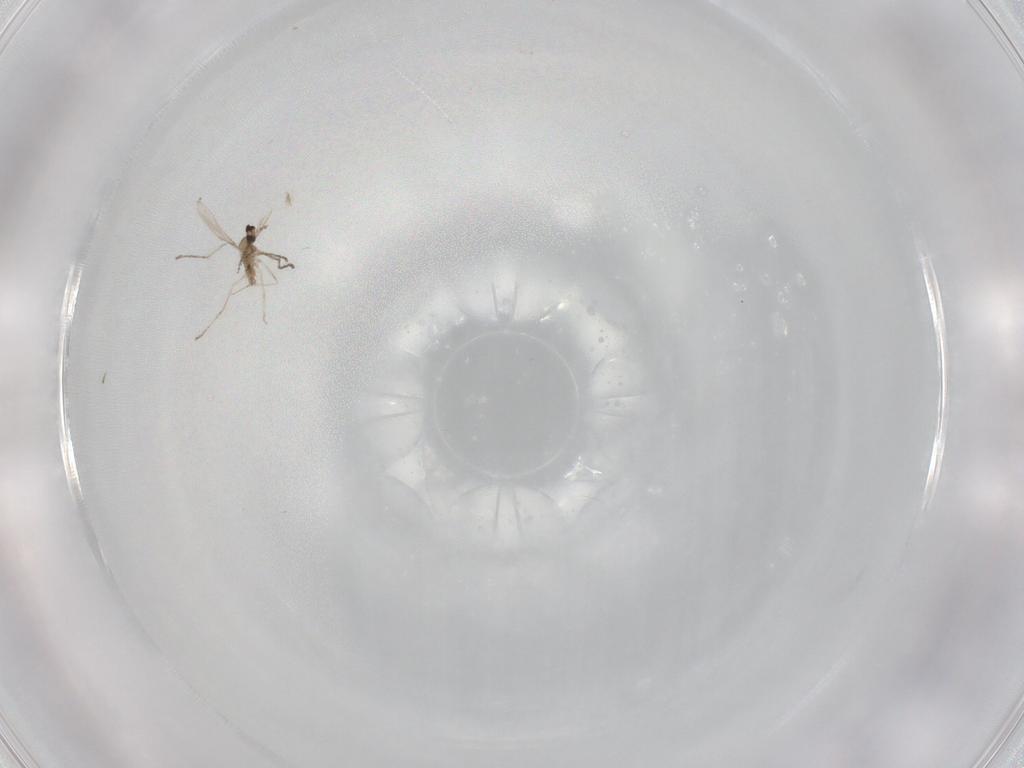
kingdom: Animalia
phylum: Arthropoda
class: Insecta
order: Diptera
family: Cecidomyiidae
